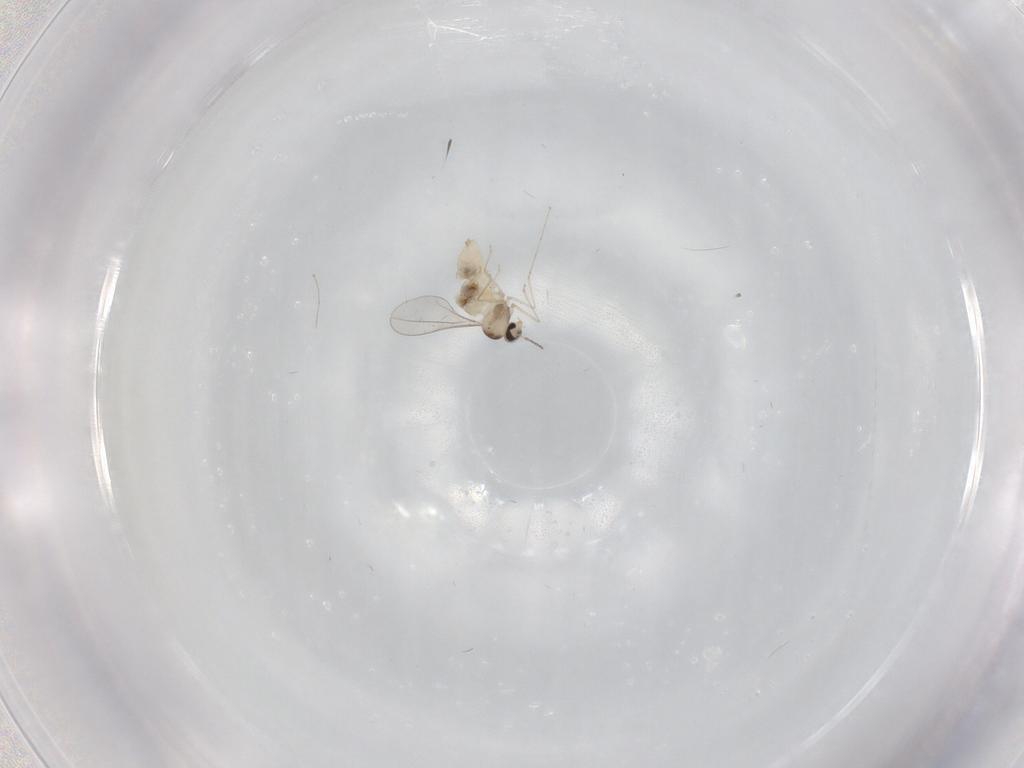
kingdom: Animalia
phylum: Arthropoda
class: Insecta
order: Diptera
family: Cecidomyiidae
